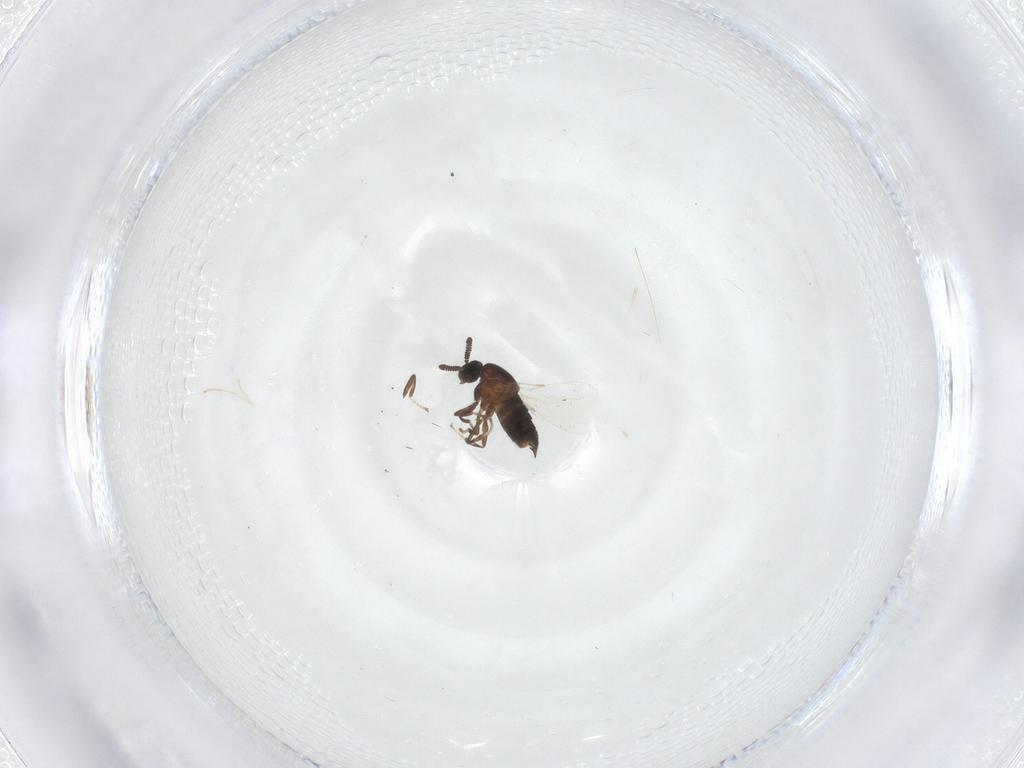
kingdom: Animalia
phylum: Arthropoda
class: Insecta
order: Diptera
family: Scatopsidae
